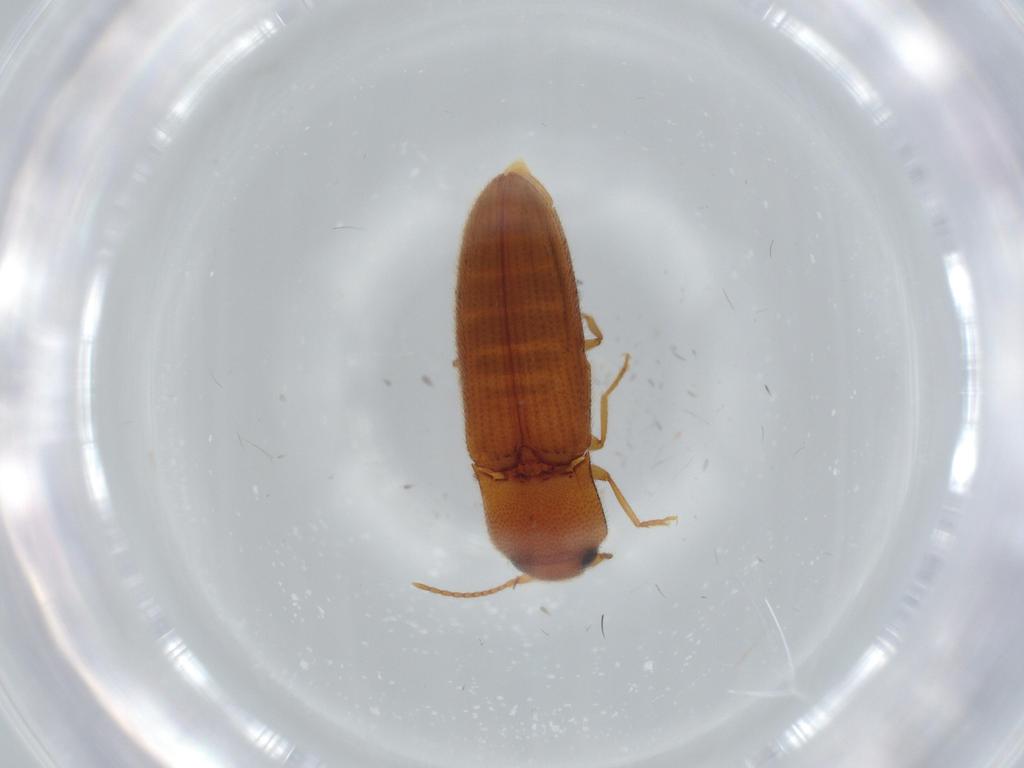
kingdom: Animalia
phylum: Arthropoda
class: Insecta
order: Coleoptera
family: Elateridae
